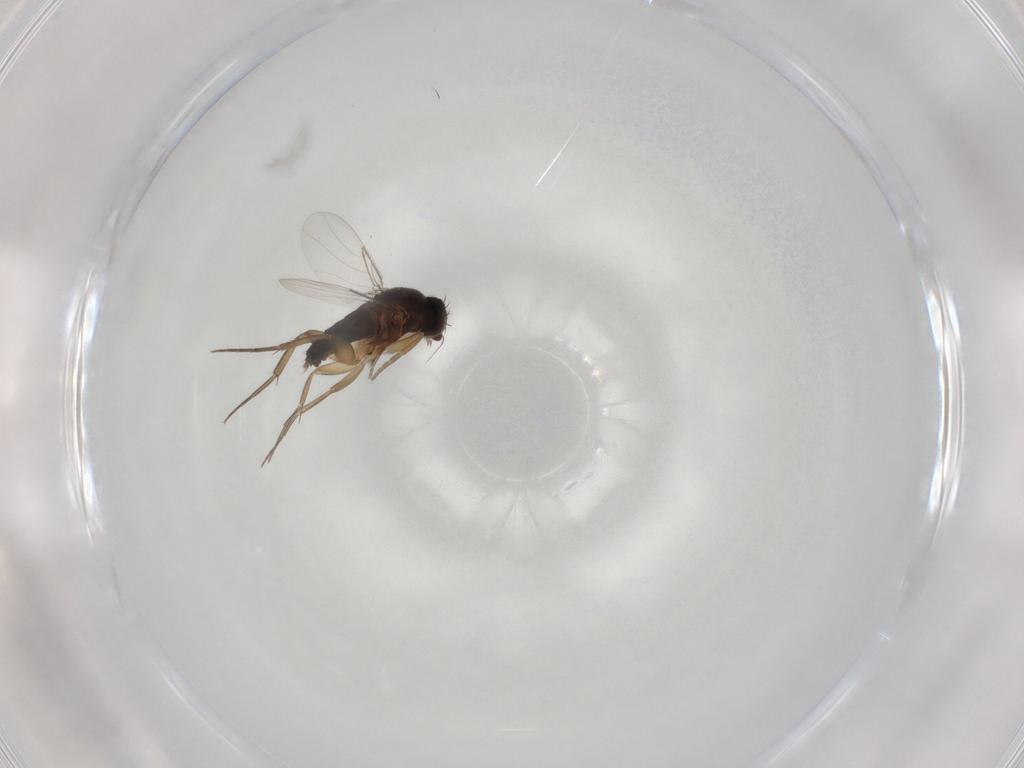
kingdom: Animalia
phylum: Arthropoda
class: Insecta
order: Diptera
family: Phoridae
